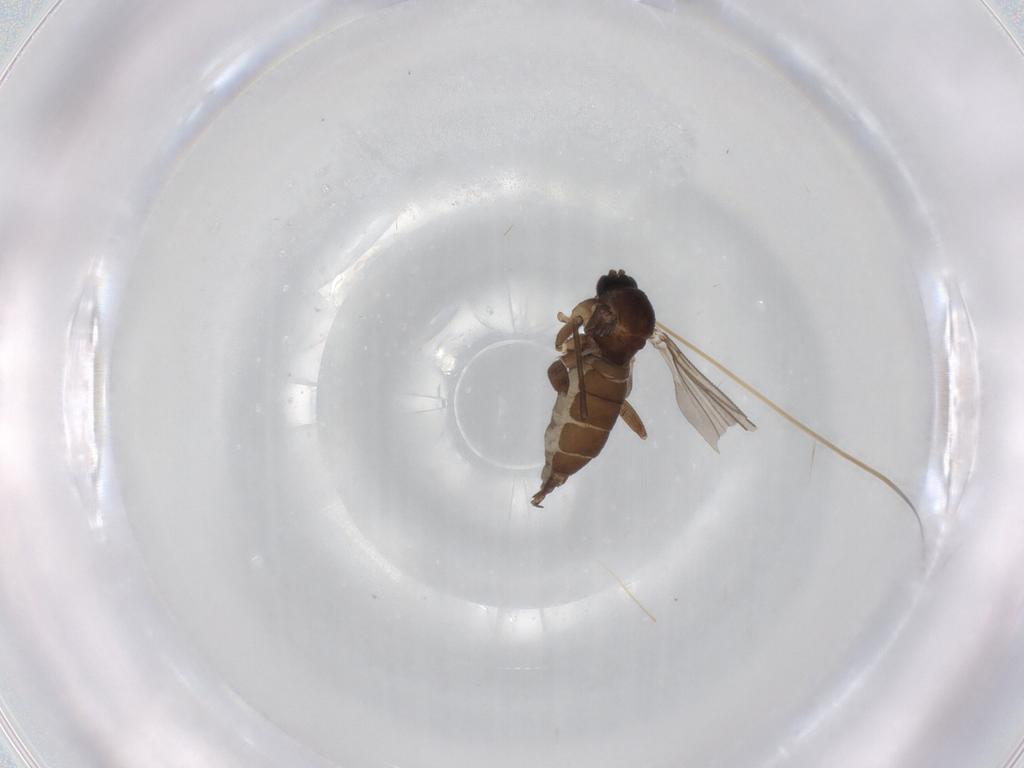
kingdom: Animalia
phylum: Arthropoda
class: Insecta
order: Diptera
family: Sciaridae
